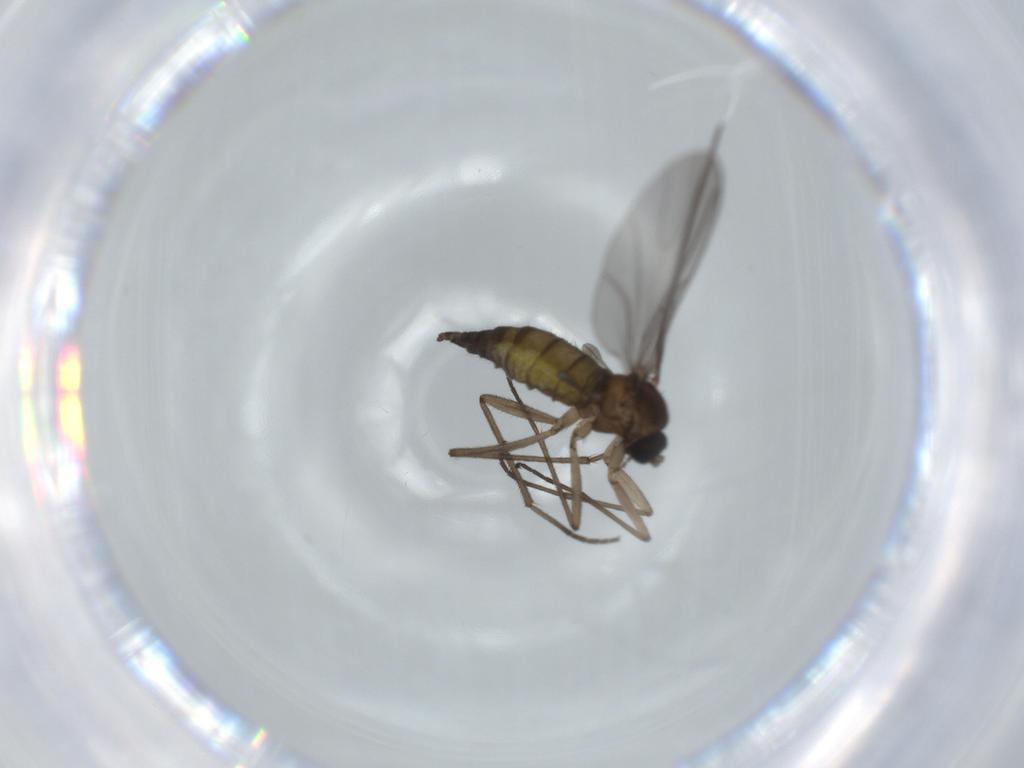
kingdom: Animalia
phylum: Arthropoda
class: Insecta
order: Diptera
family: Sciaridae
